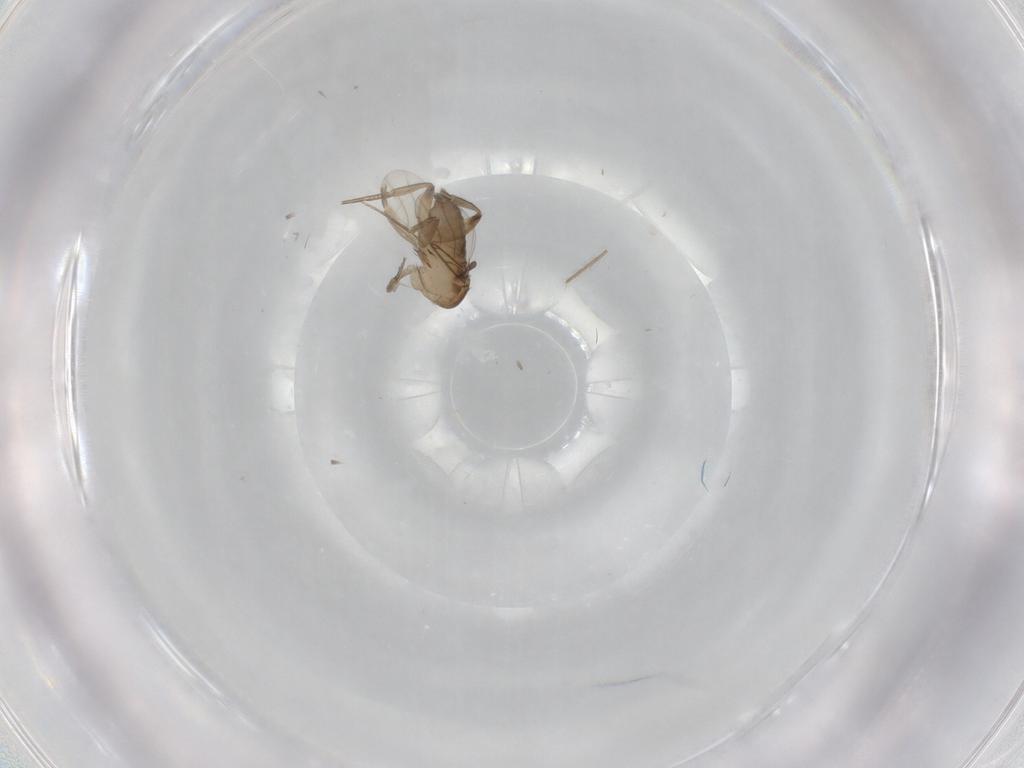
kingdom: Animalia
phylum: Arthropoda
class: Insecta
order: Diptera
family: Phoridae
